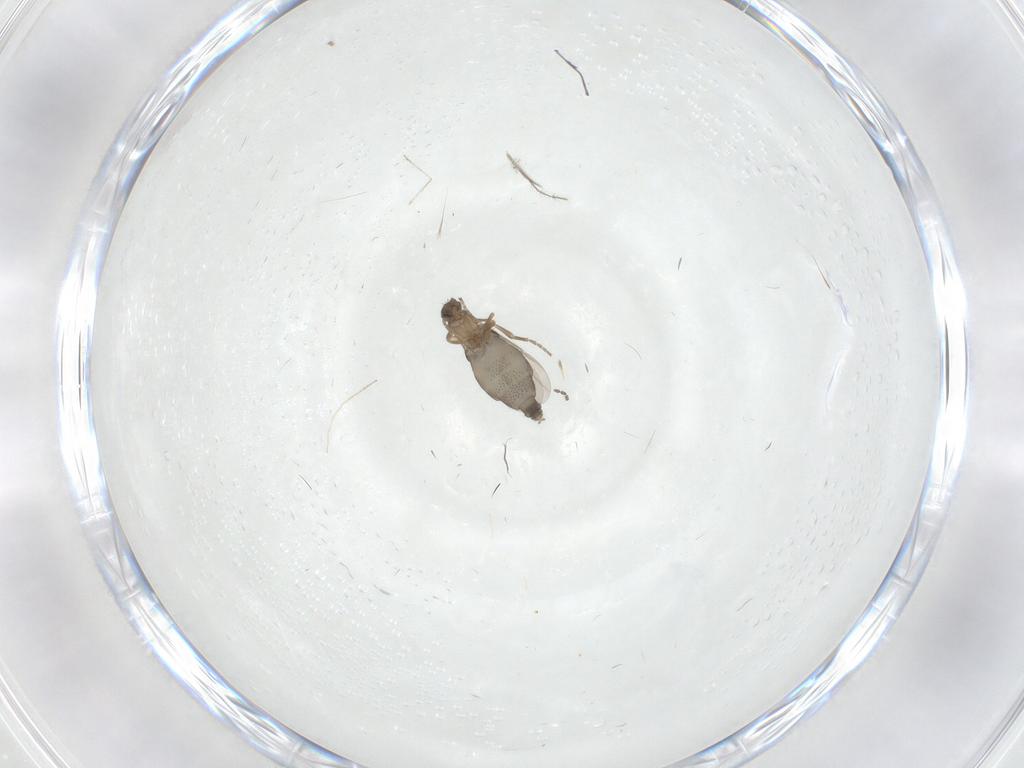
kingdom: Animalia
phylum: Arthropoda
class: Insecta
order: Diptera
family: Phoridae
